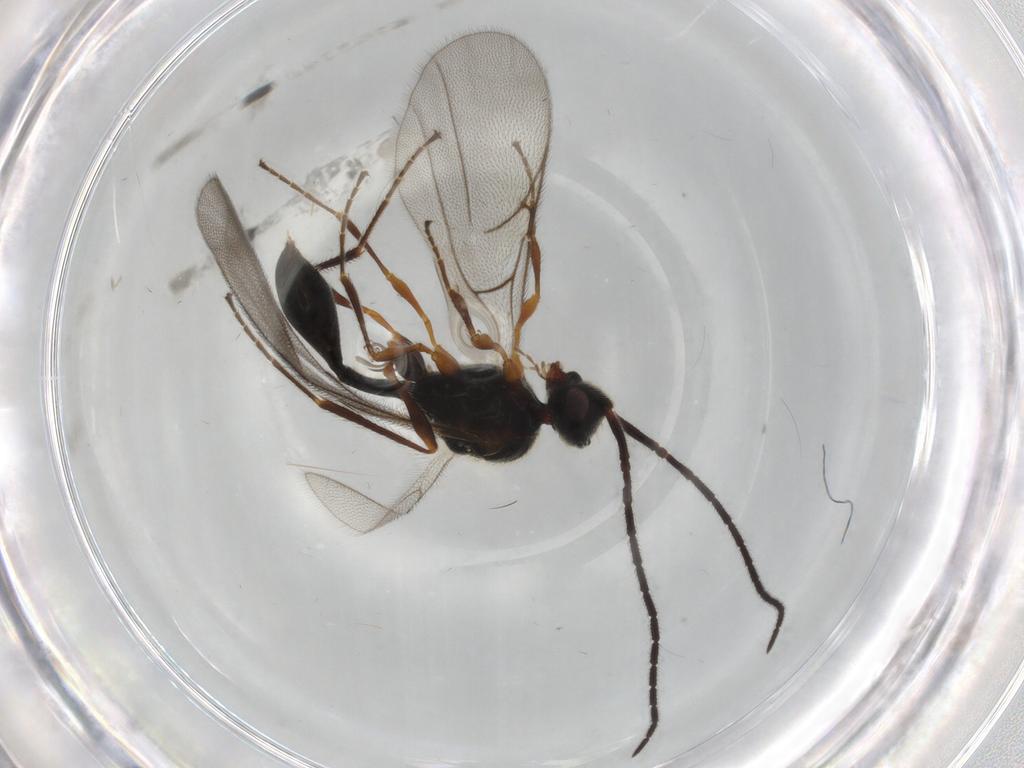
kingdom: Animalia
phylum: Arthropoda
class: Insecta
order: Hymenoptera
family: Diapriidae
